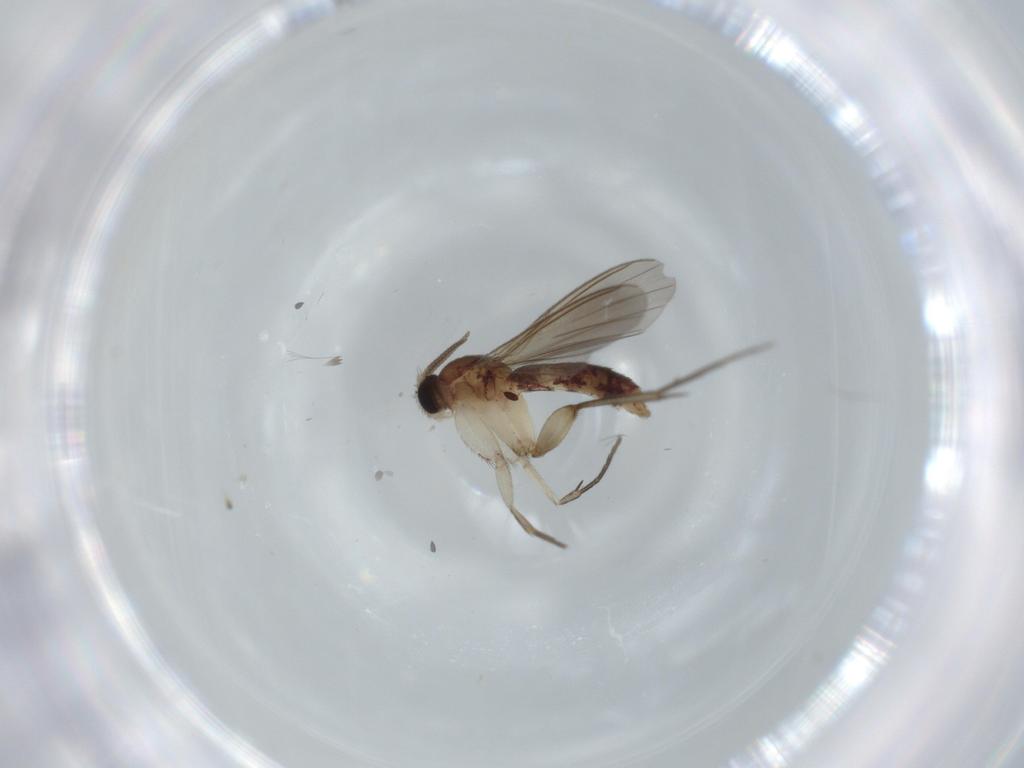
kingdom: Animalia
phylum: Arthropoda
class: Insecta
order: Diptera
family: Mycetophilidae
